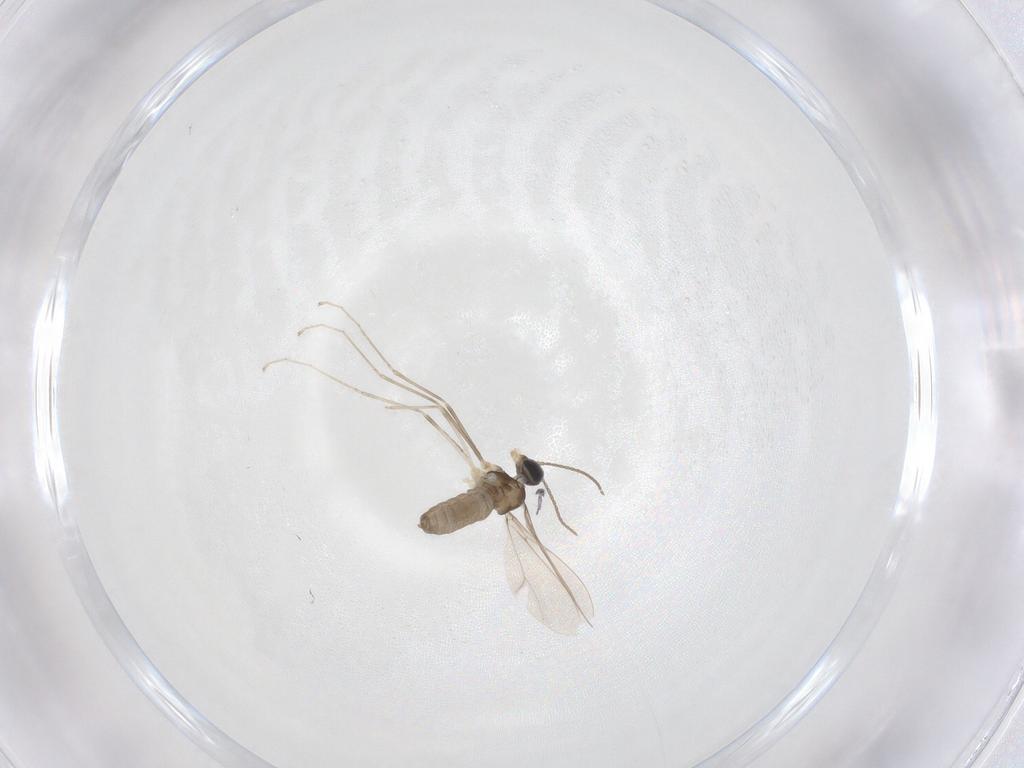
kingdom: Animalia
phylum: Arthropoda
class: Insecta
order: Diptera
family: Cecidomyiidae
